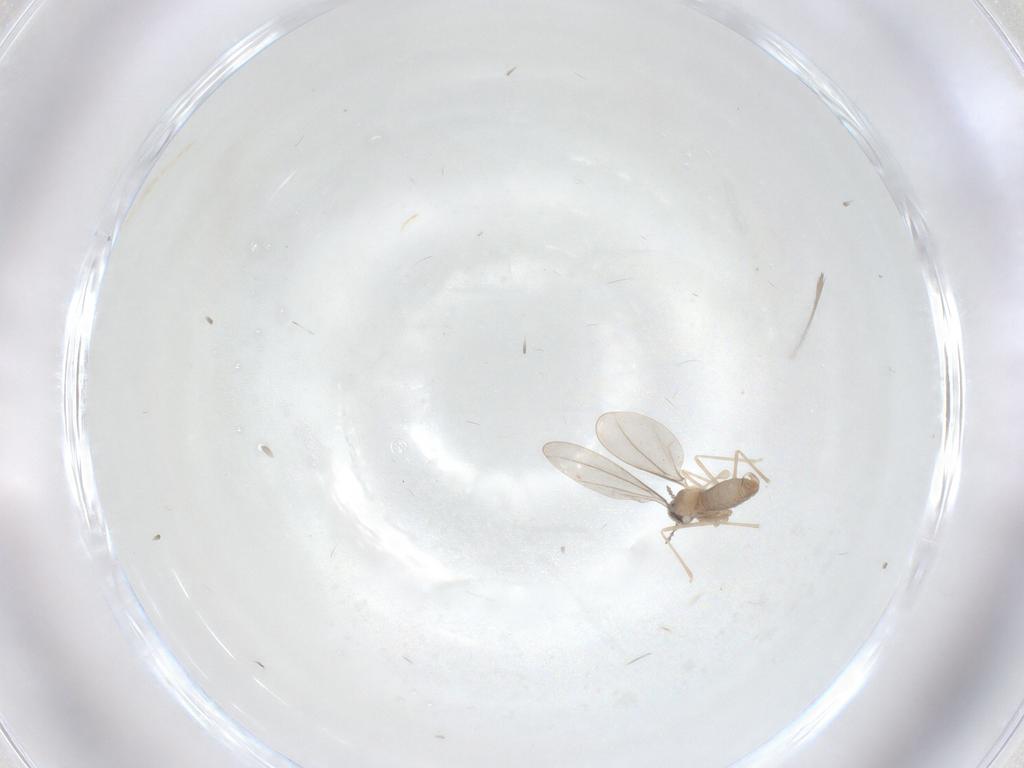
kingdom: Animalia
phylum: Arthropoda
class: Insecta
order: Diptera
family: Cecidomyiidae
